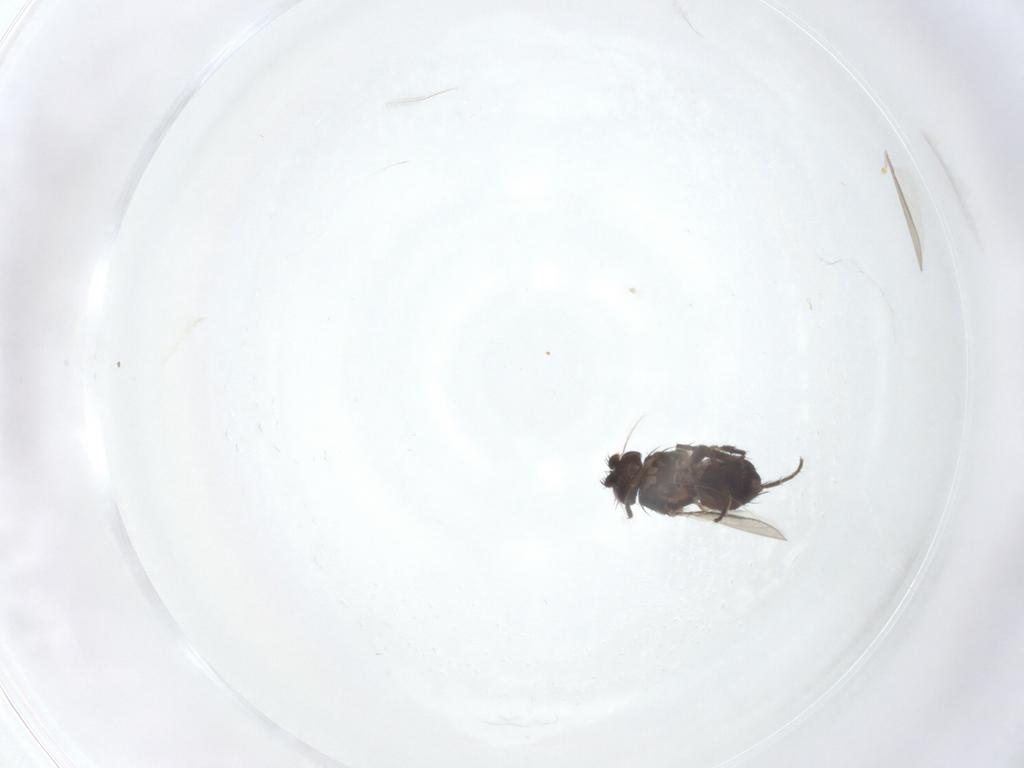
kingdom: Animalia
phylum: Arthropoda
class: Insecta
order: Diptera
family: Sphaeroceridae
